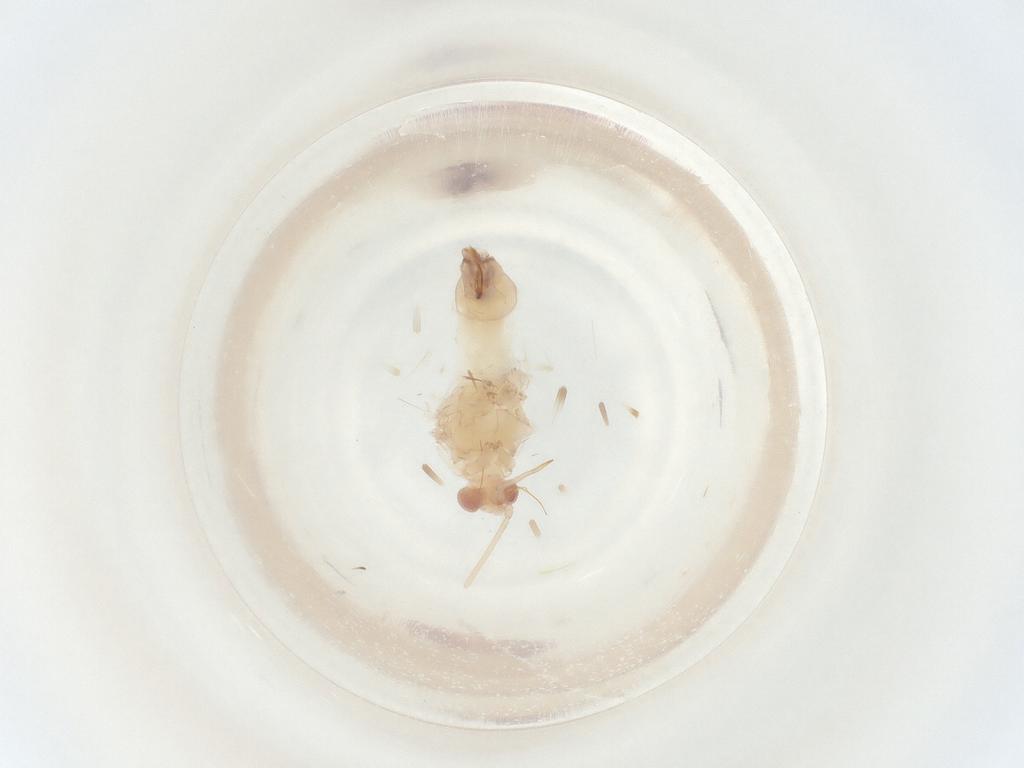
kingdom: Animalia
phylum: Arthropoda
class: Insecta
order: Hemiptera
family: Miridae
